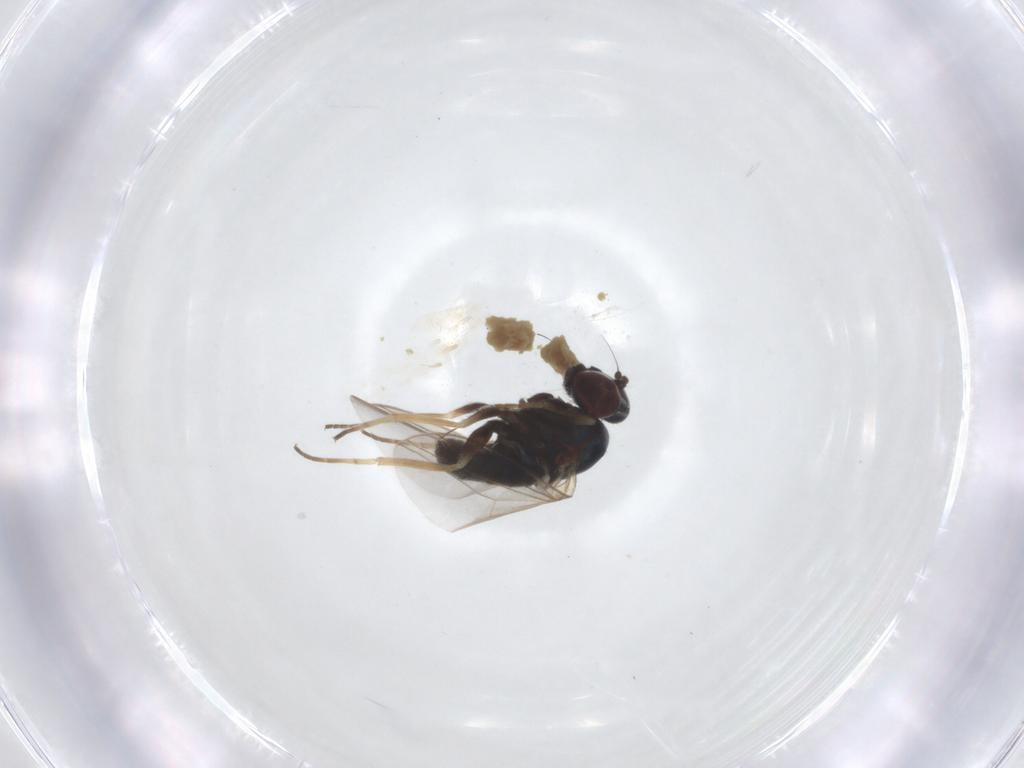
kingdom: Animalia
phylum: Arthropoda
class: Insecta
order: Diptera
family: Dolichopodidae
